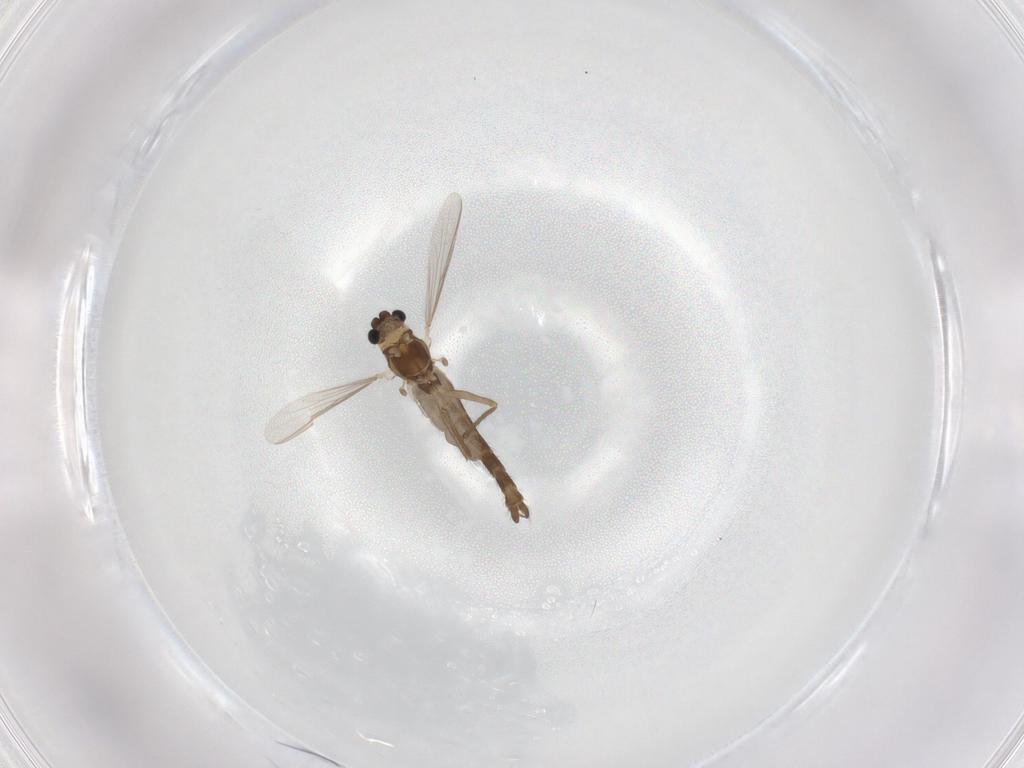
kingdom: Animalia
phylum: Arthropoda
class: Insecta
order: Diptera
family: Chironomidae
